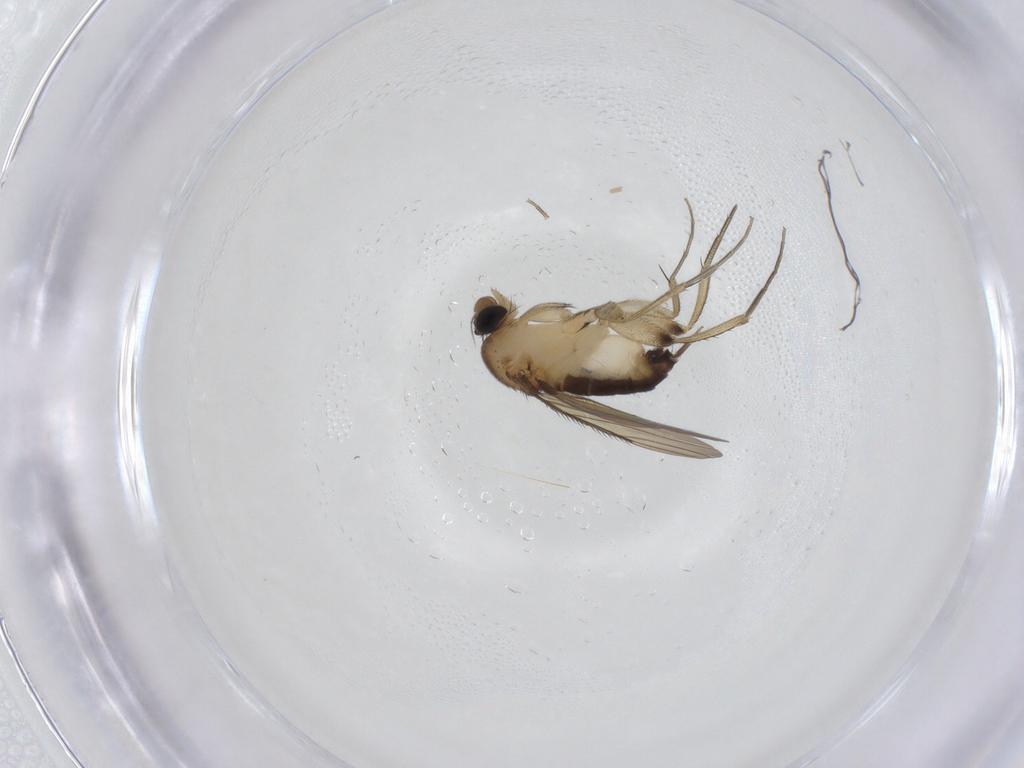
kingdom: Animalia
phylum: Arthropoda
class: Insecta
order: Diptera
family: Phoridae
